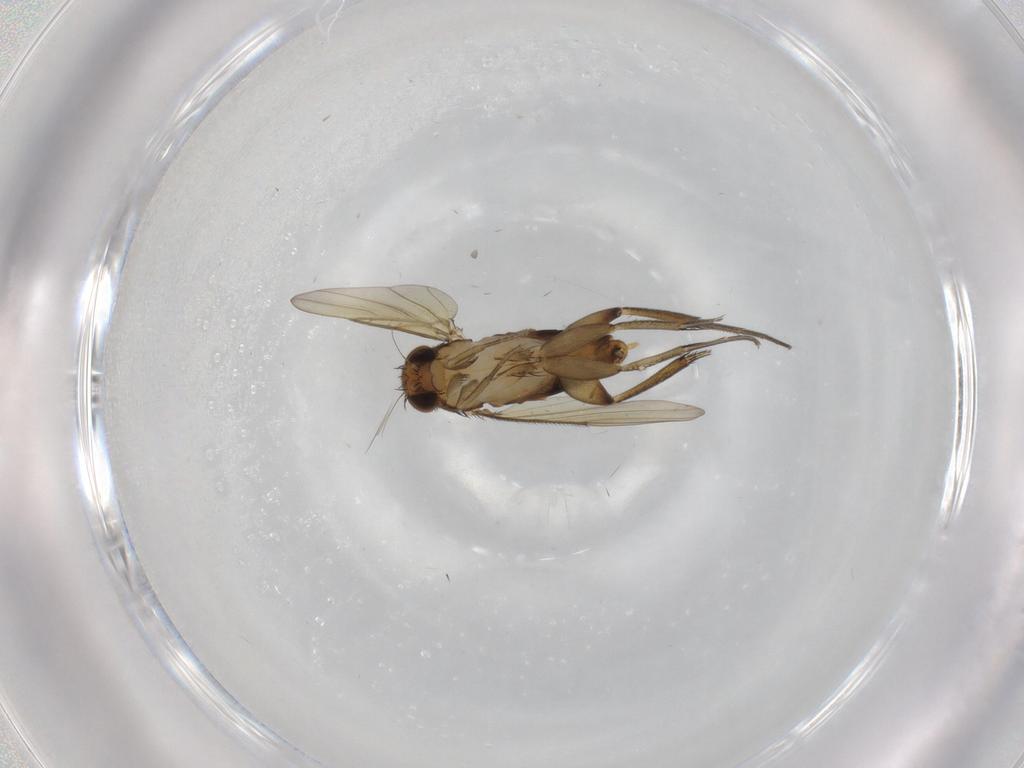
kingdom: Animalia
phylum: Arthropoda
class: Insecta
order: Diptera
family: Phoridae
